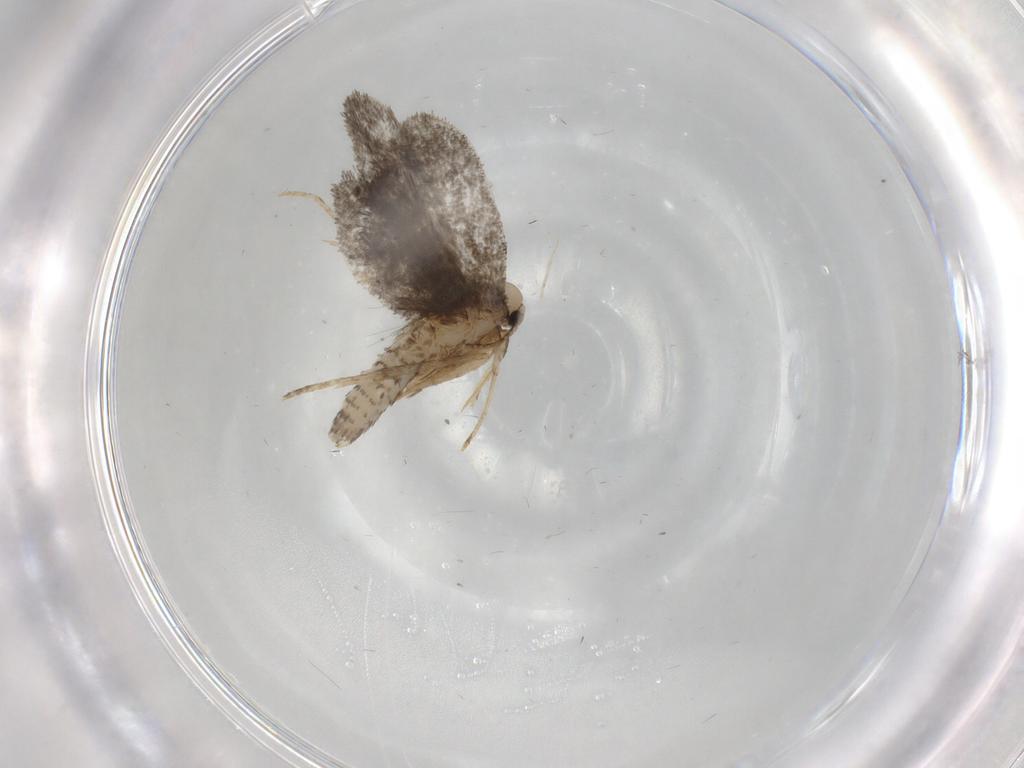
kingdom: Animalia
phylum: Arthropoda
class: Insecta
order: Lepidoptera
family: Psychidae
